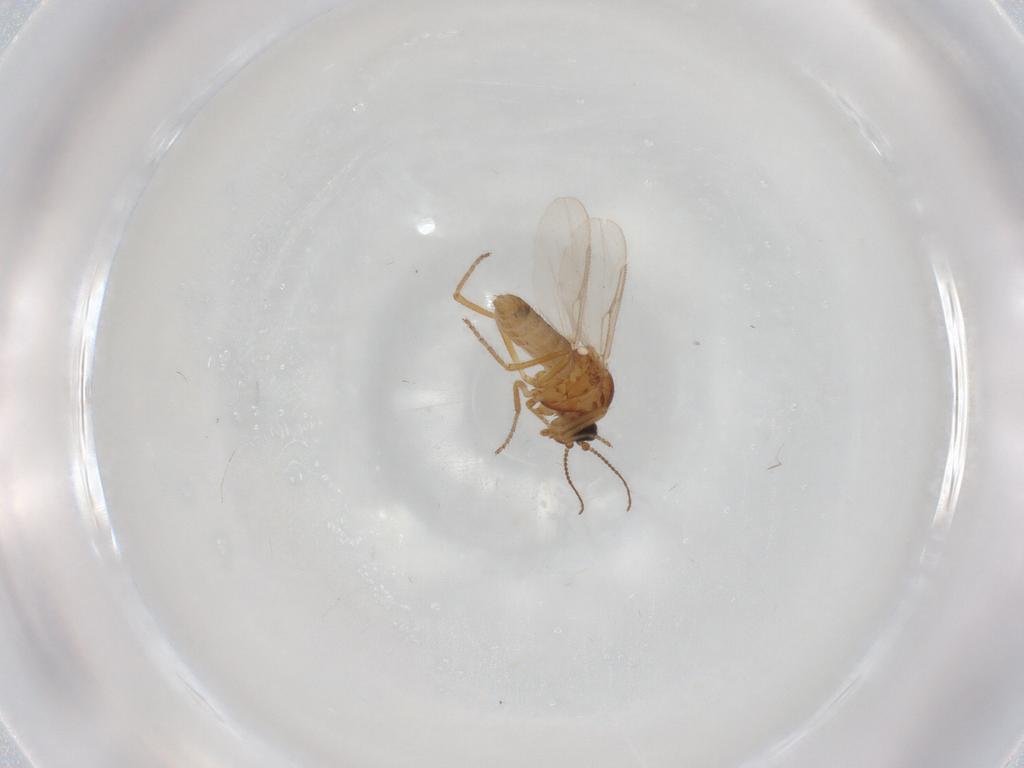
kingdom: Animalia
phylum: Arthropoda
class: Insecta
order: Diptera
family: Ceratopogonidae
